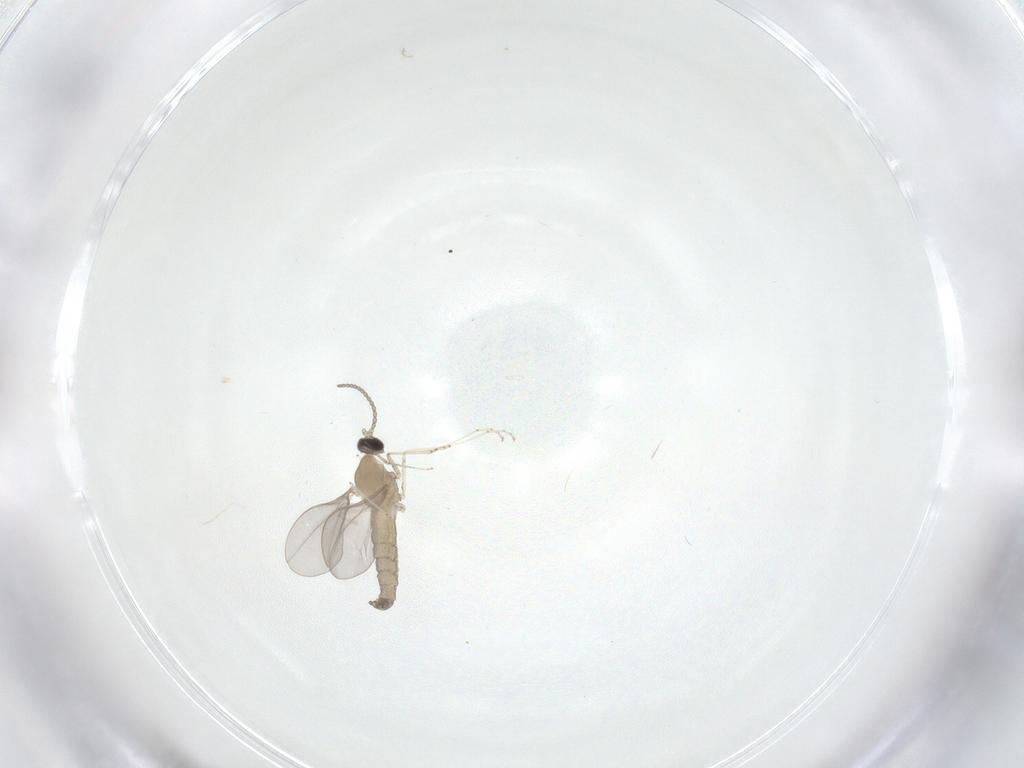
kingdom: Animalia
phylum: Arthropoda
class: Insecta
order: Diptera
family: Cecidomyiidae
